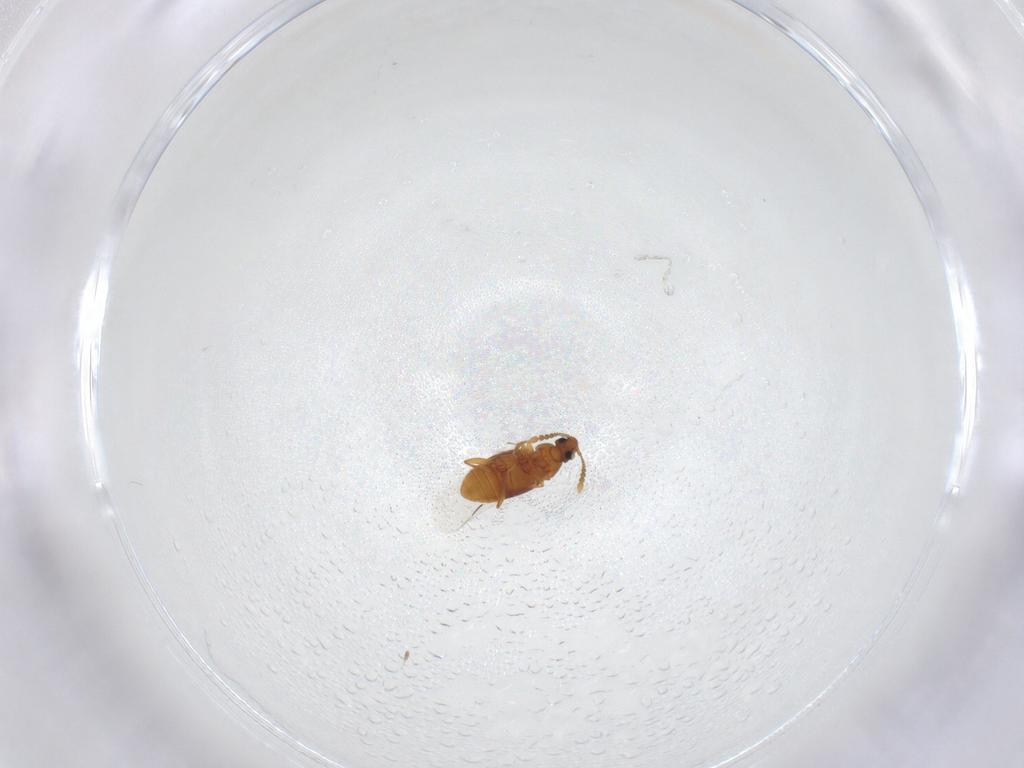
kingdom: Animalia
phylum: Arthropoda
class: Insecta
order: Coleoptera
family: Staphylinidae
